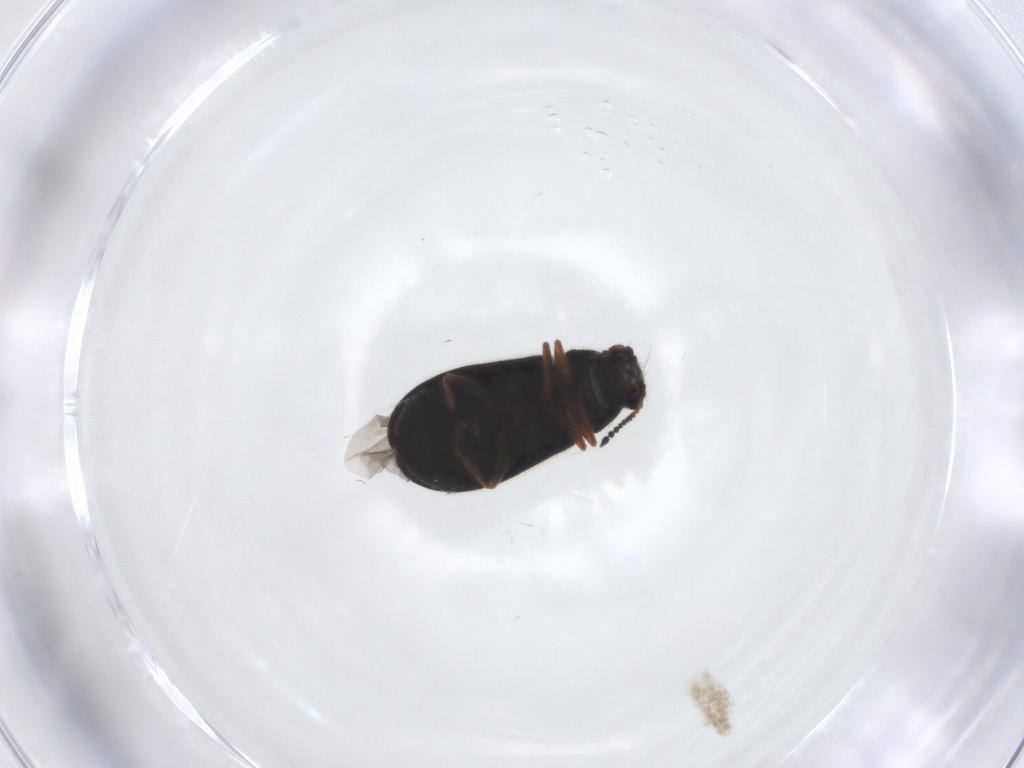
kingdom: Animalia
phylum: Arthropoda
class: Insecta
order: Coleoptera
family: Melyridae
